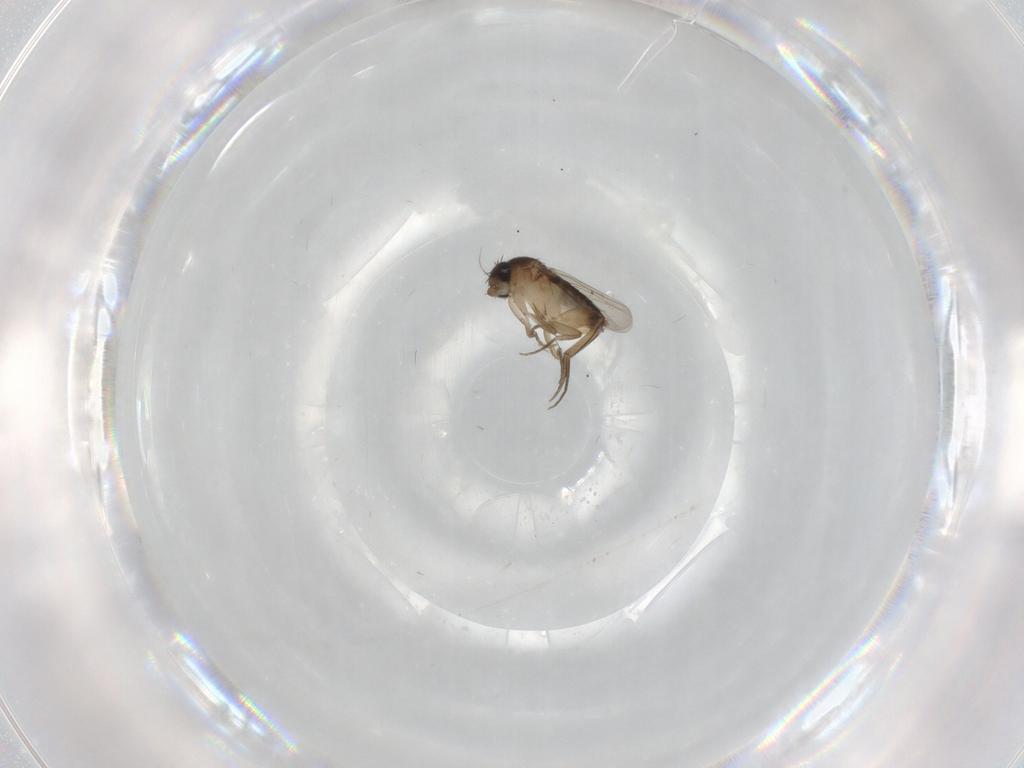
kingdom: Animalia
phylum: Arthropoda
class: Insecta
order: Diptera
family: Phoridae
